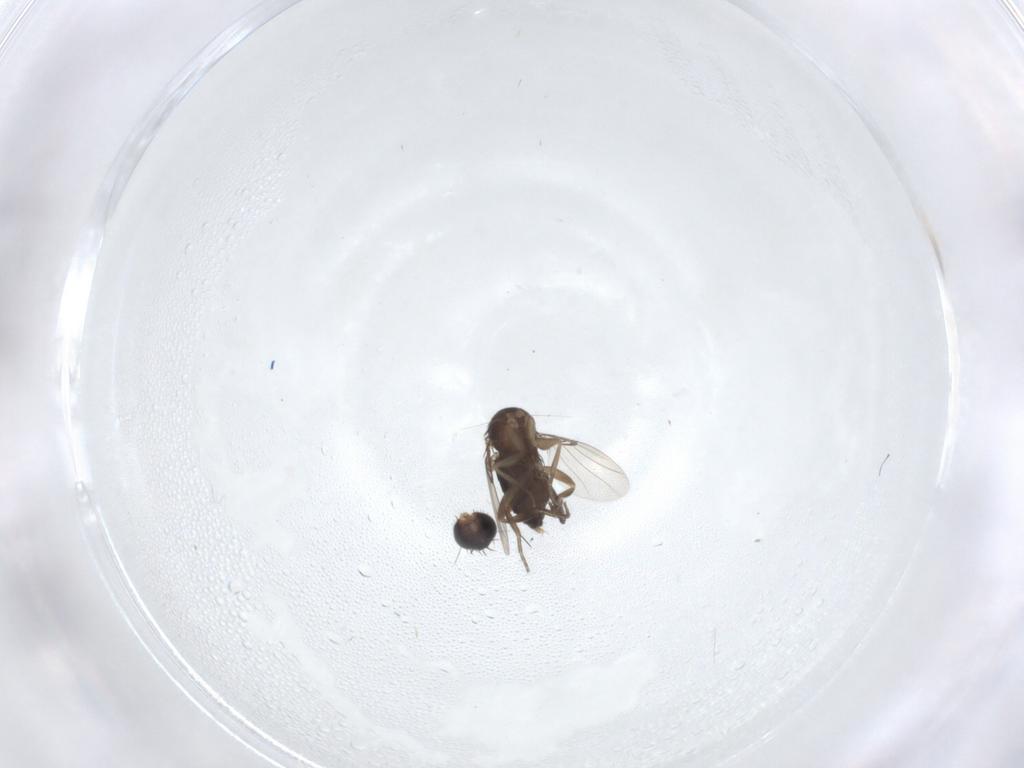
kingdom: Animalia
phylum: Arthropoda
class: Insecta
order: Diptera
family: Phoridae
